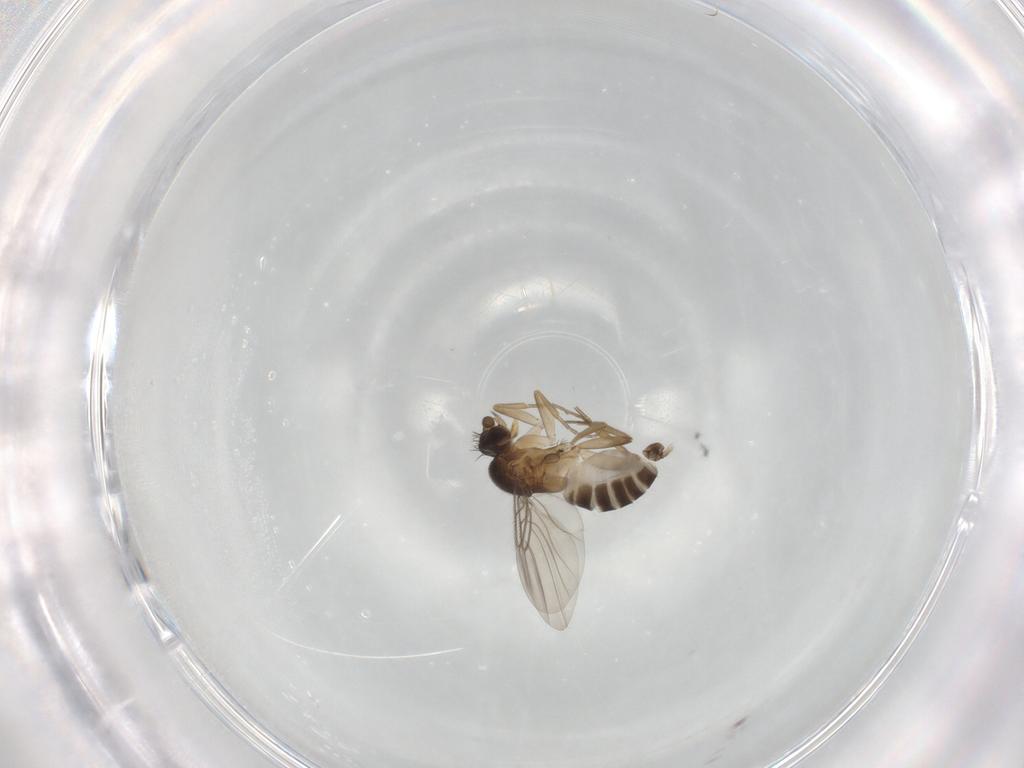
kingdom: Animalia
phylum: Arthropoda
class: Insecta
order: Diptera
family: Phoridae
